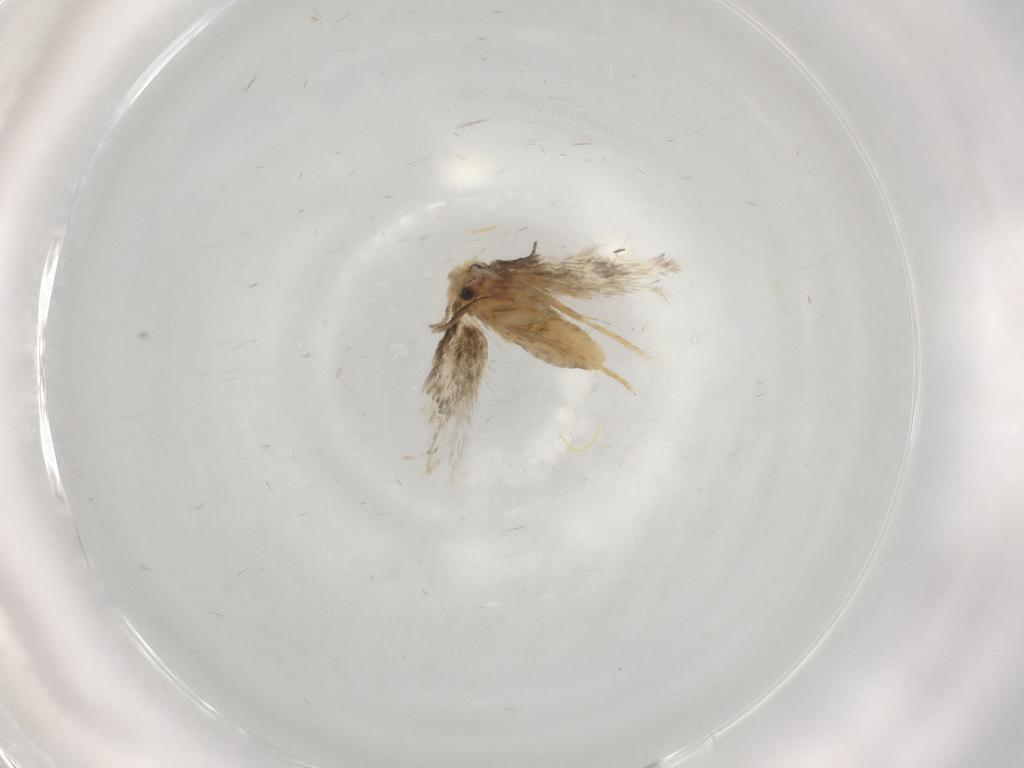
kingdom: Animalia
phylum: Arthropoda
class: Insecta
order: Lepidoptera
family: Nepticulidae
